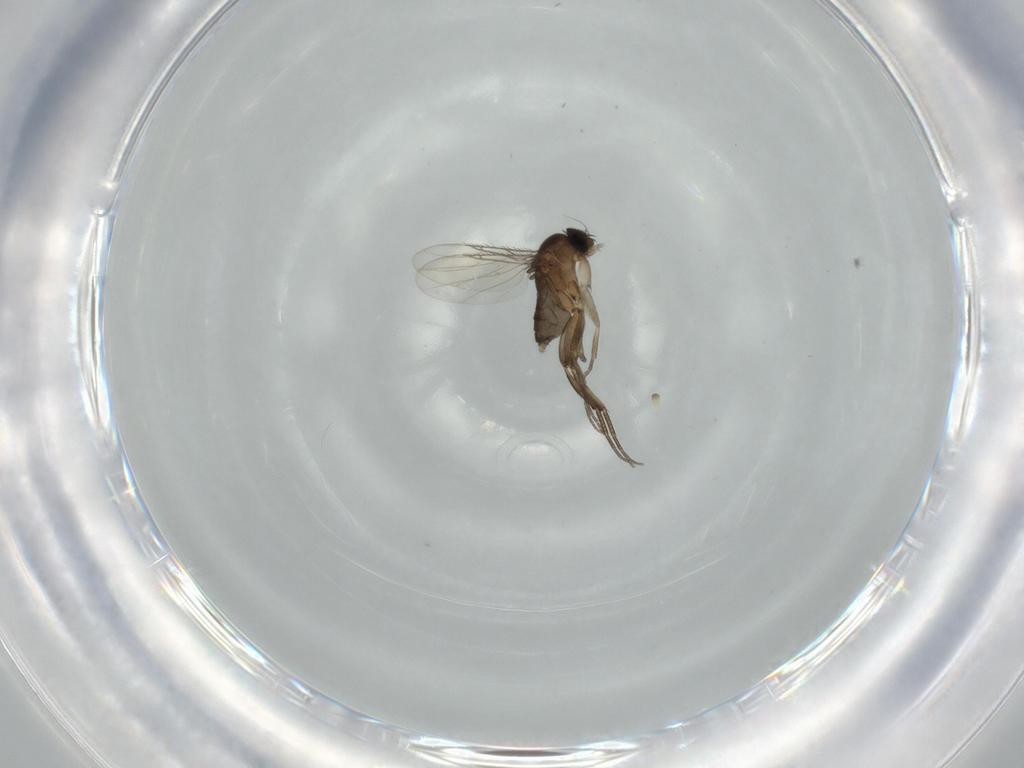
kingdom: Animalia
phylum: Arthropoda
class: Insecta
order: Diptera
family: Phoridae
